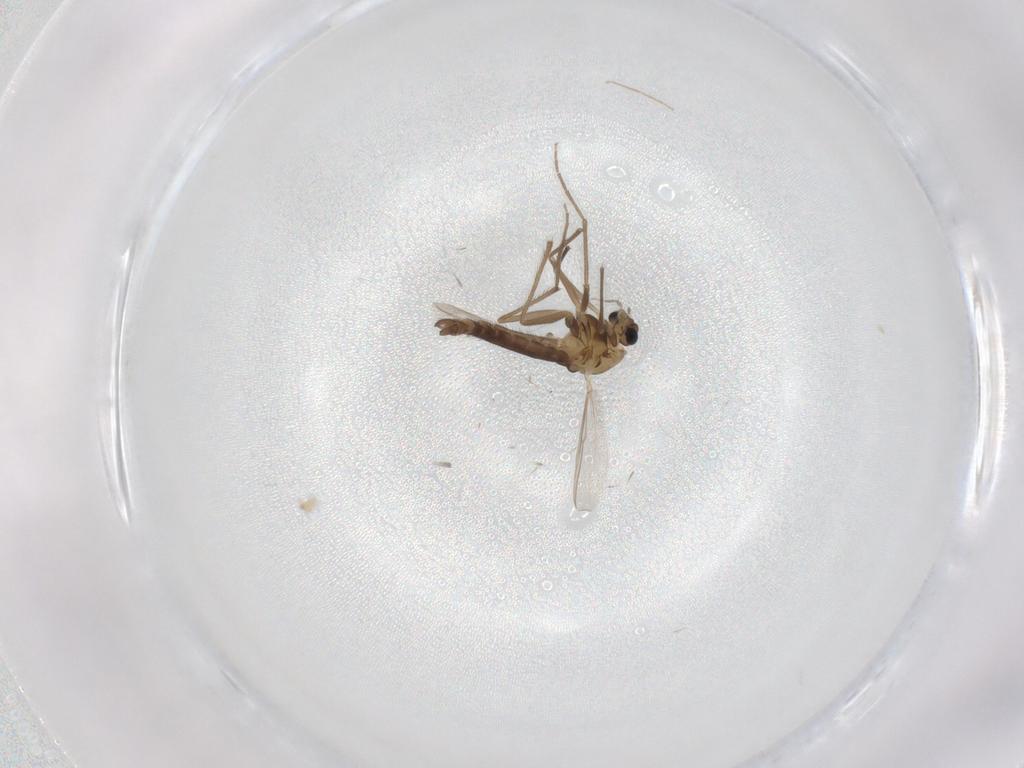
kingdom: Animalia
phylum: Arthropoda
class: Insecta
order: Diptera
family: Chironomidae
